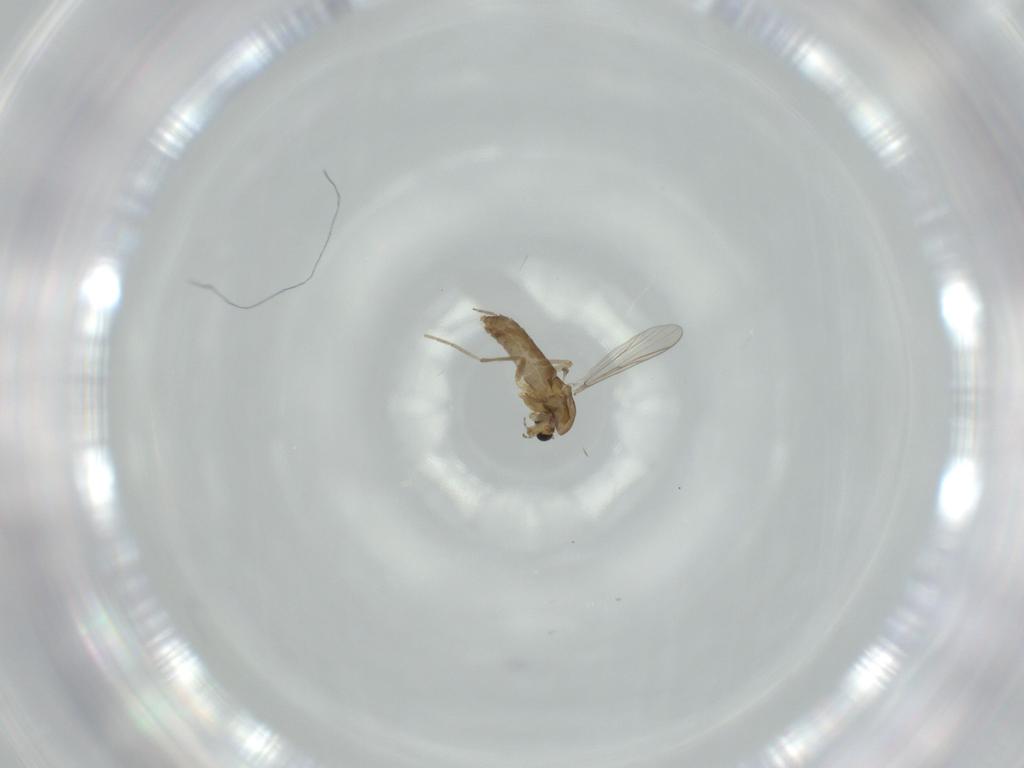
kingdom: Animalia
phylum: Arthropoda
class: Insecta
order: Diptera
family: Chironomidae
